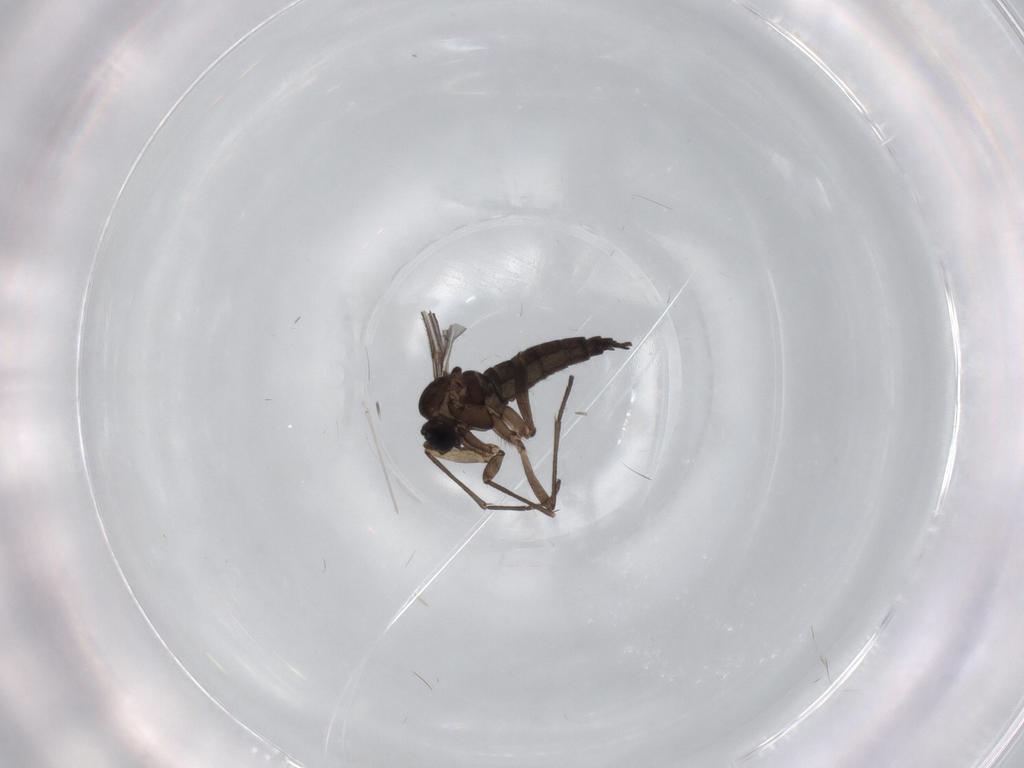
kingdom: Animalia
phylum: Arthropoda
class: Insecta
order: Diptera
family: Sciaridae
